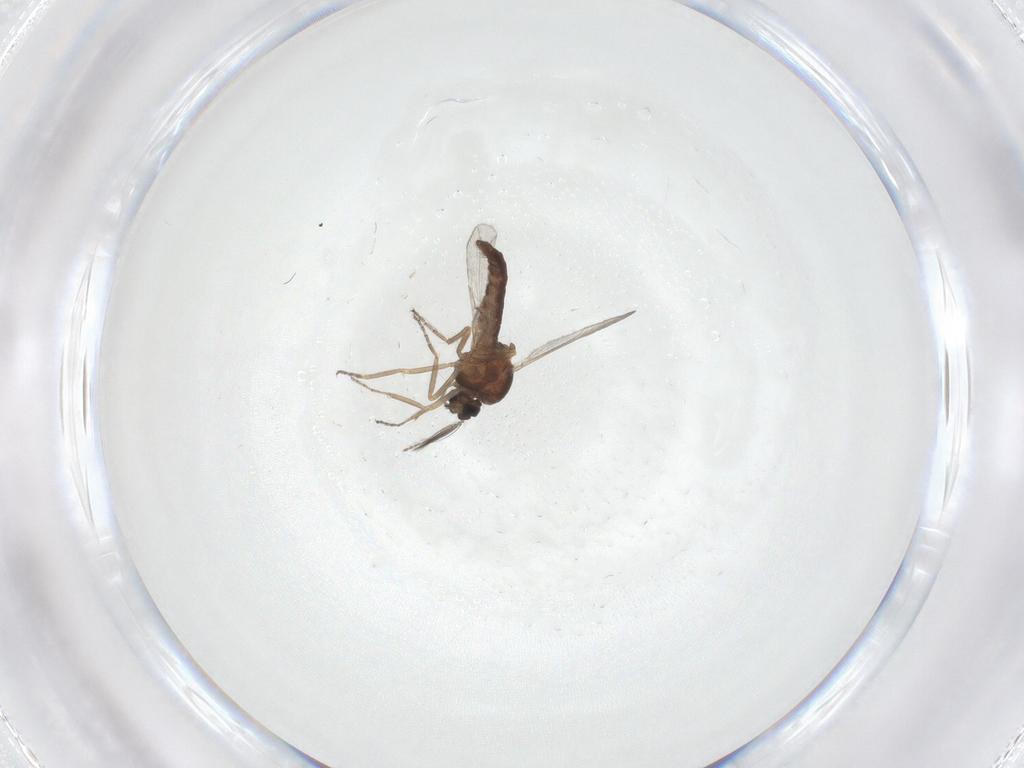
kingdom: Animalia
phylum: Arthropoda
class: Insecta
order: Diptera
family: Ceratopogonidae
